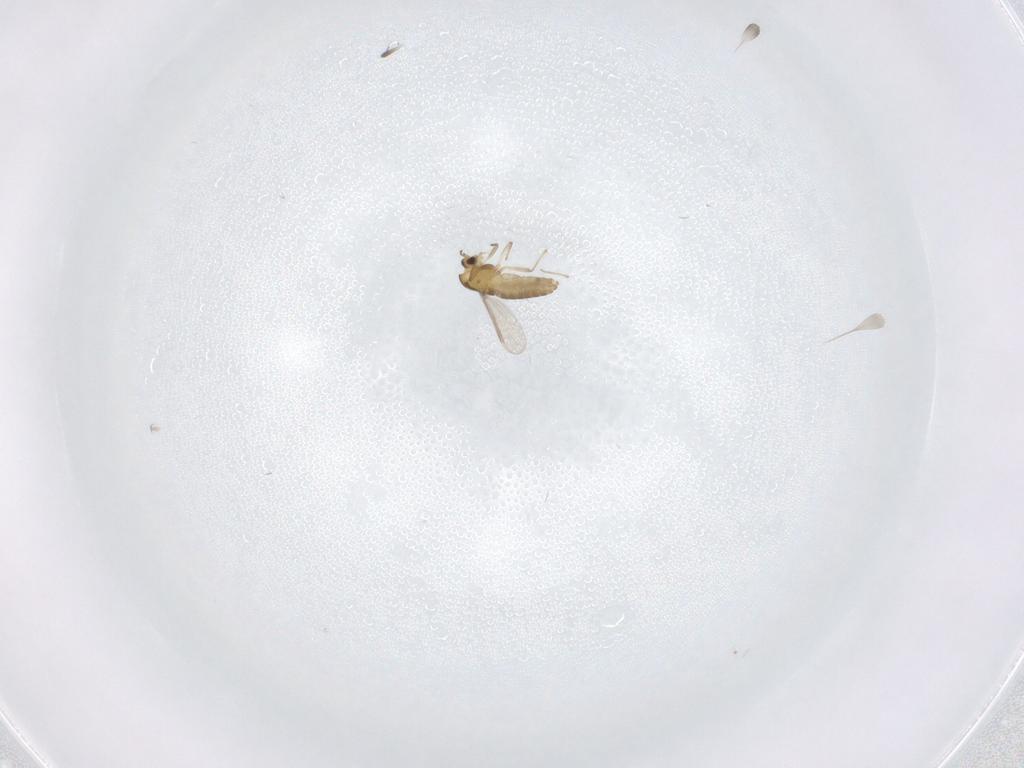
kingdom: Animalia
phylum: Arthropoda
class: Insecta
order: Diptera
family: Chironomidae
